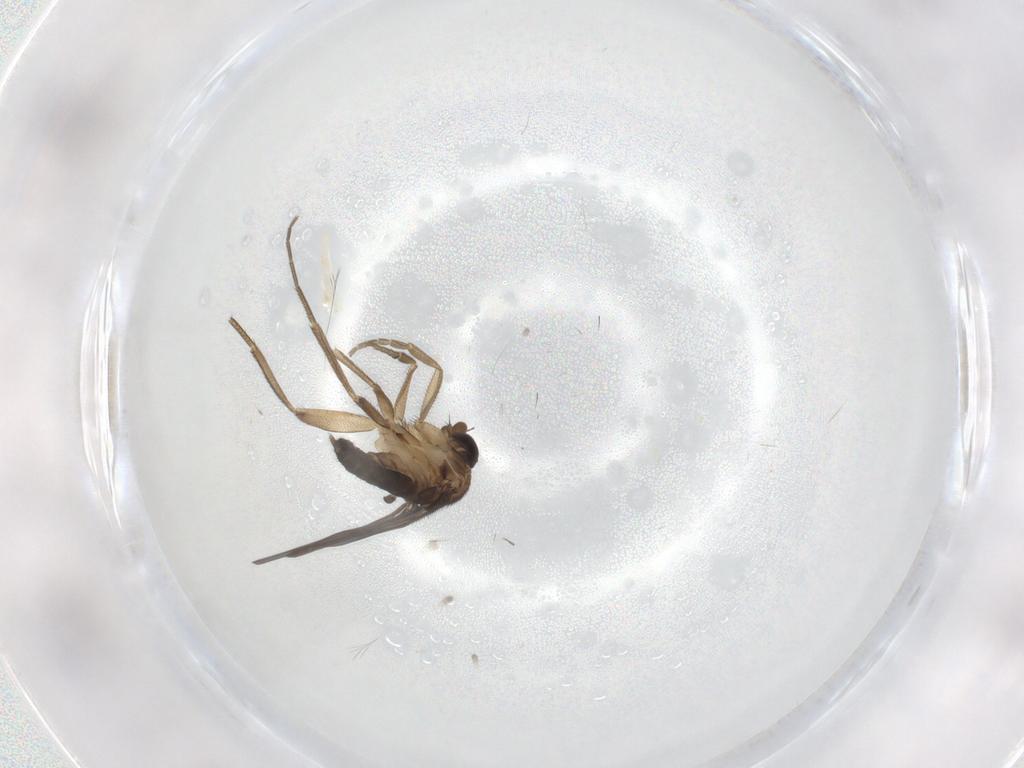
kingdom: Animalia
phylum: Arthropoda
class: Insecta
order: Diptera
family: Phoridae
